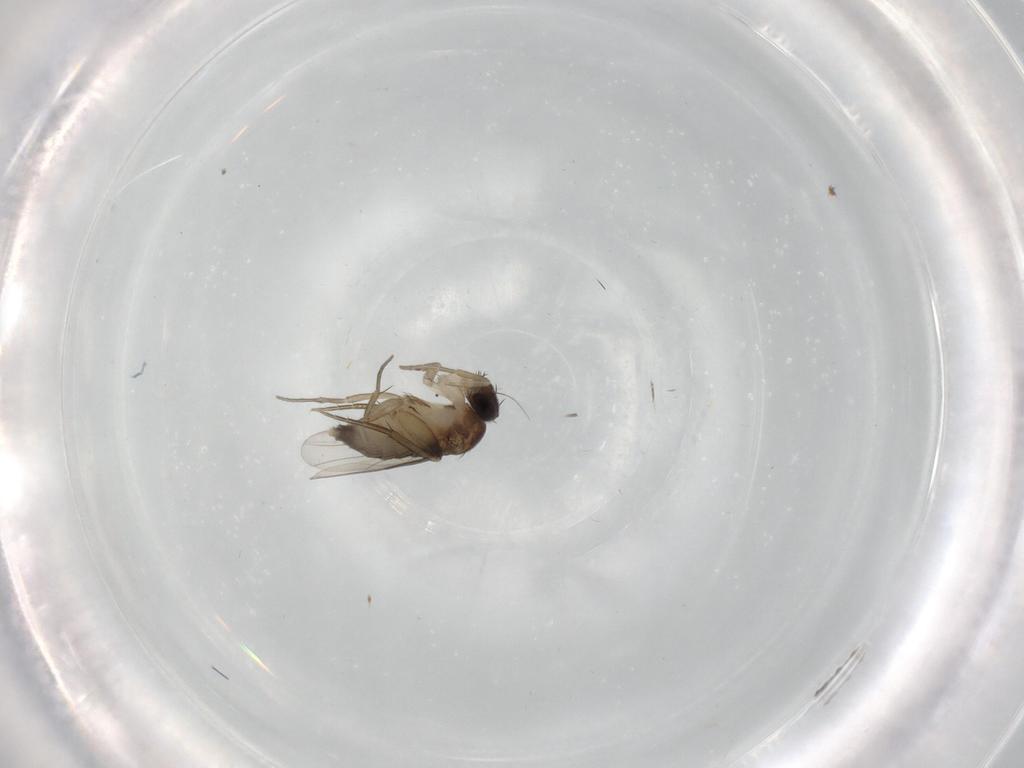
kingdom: Animalia
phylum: Arthropoda
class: Insecta
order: Diptera
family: Phoridae
